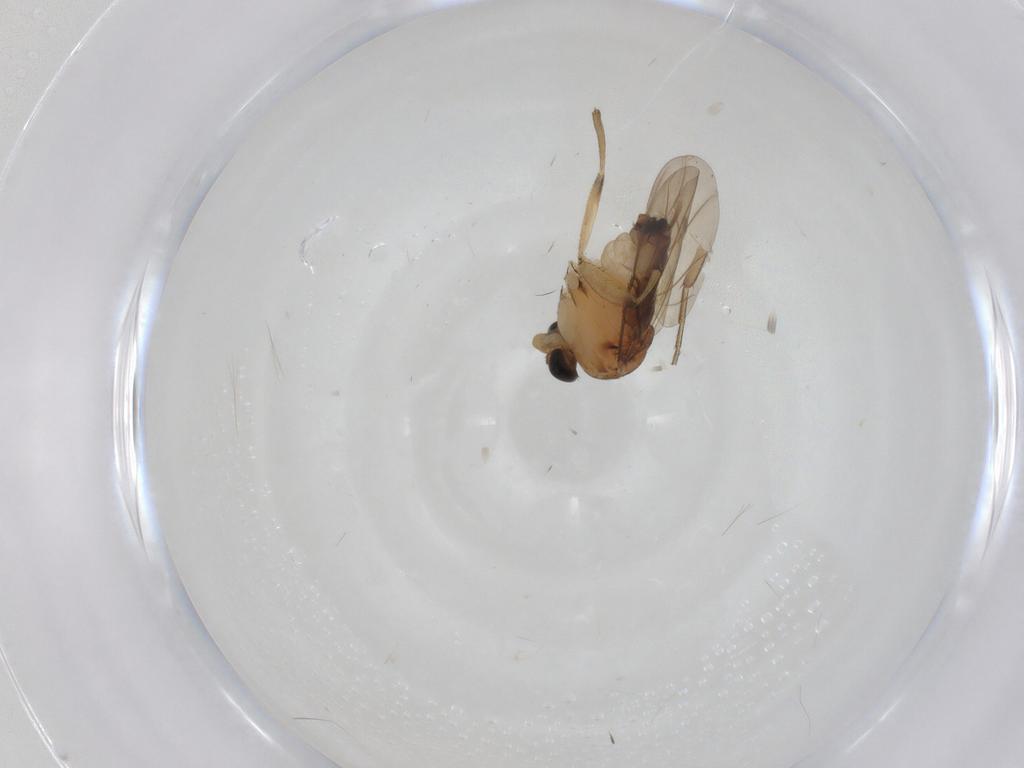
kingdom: Animalia
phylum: Arthropoda
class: Insecta
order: Diptera
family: Phoridae
